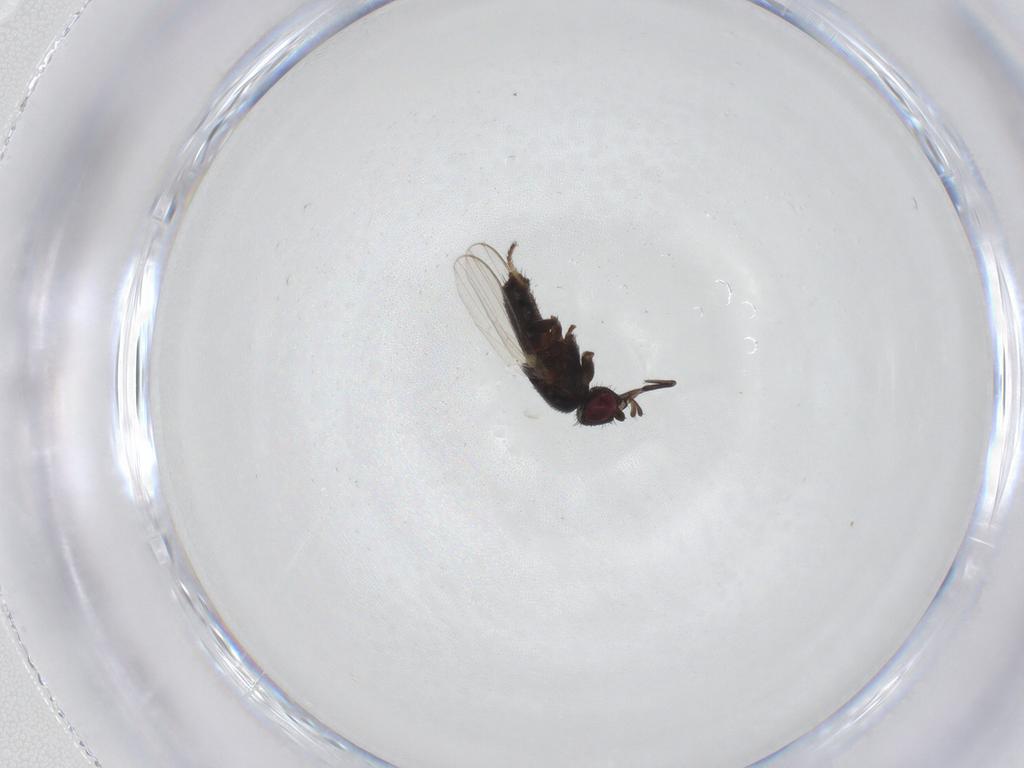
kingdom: Animalia
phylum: Arthropoda
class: Insecta
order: Diptera
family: Milichiidae
